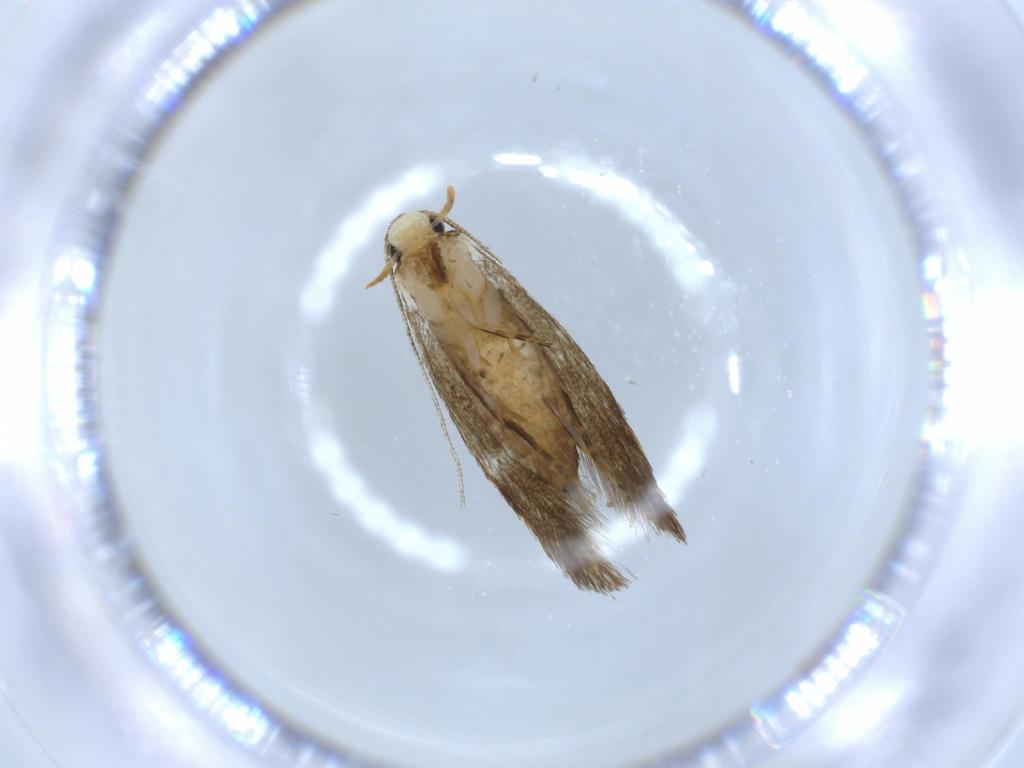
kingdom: Animalia
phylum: Arthropoda
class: Insecta
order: Lepidoptera
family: Tineidae
